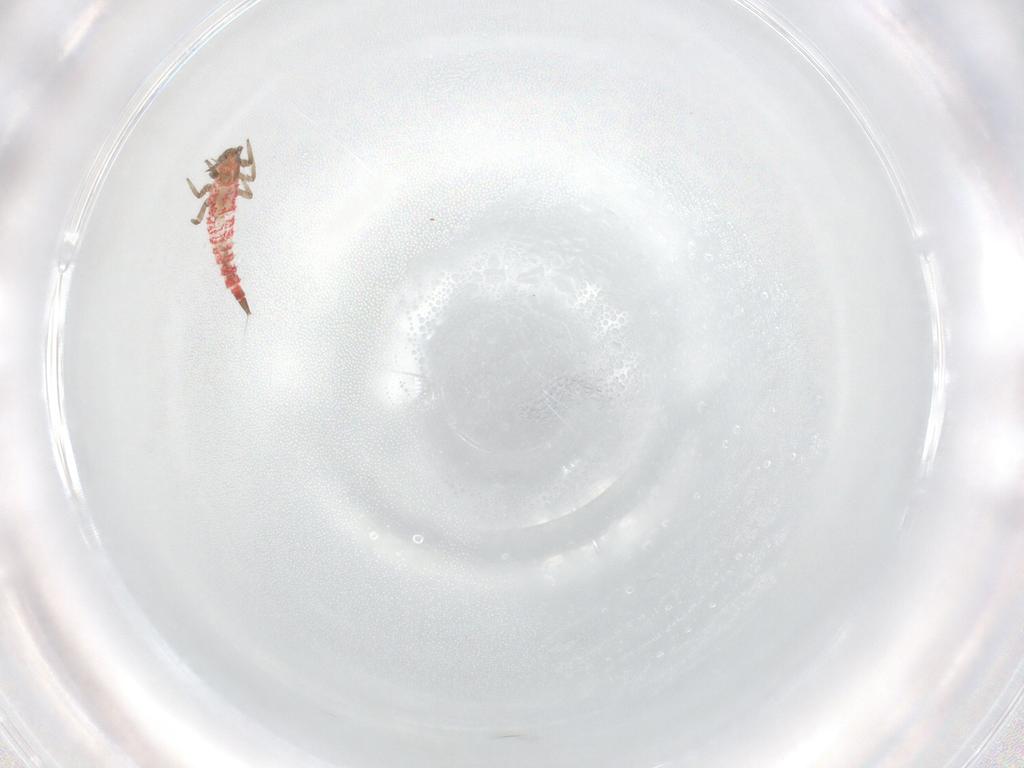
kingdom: Animalia
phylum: Arthropoda
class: Insecta
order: Thysanoptera
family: Phlaeothripidae
